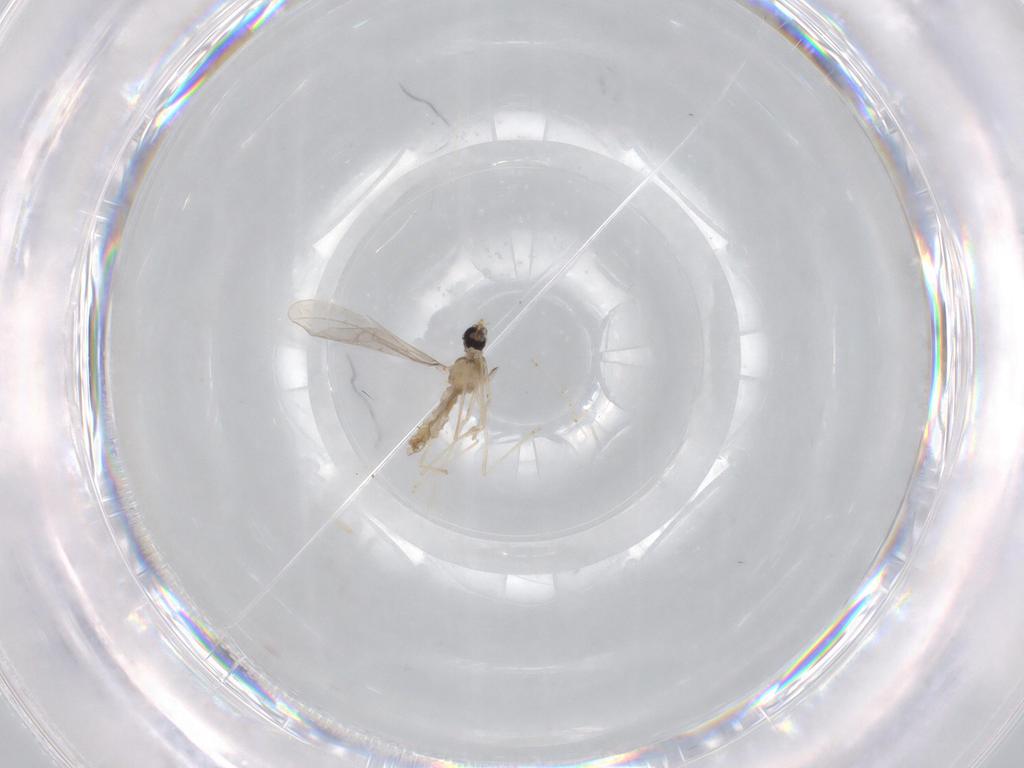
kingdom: Animalia
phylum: Arthropoda
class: Insecta
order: Diptera
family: Cecidomyiidae
